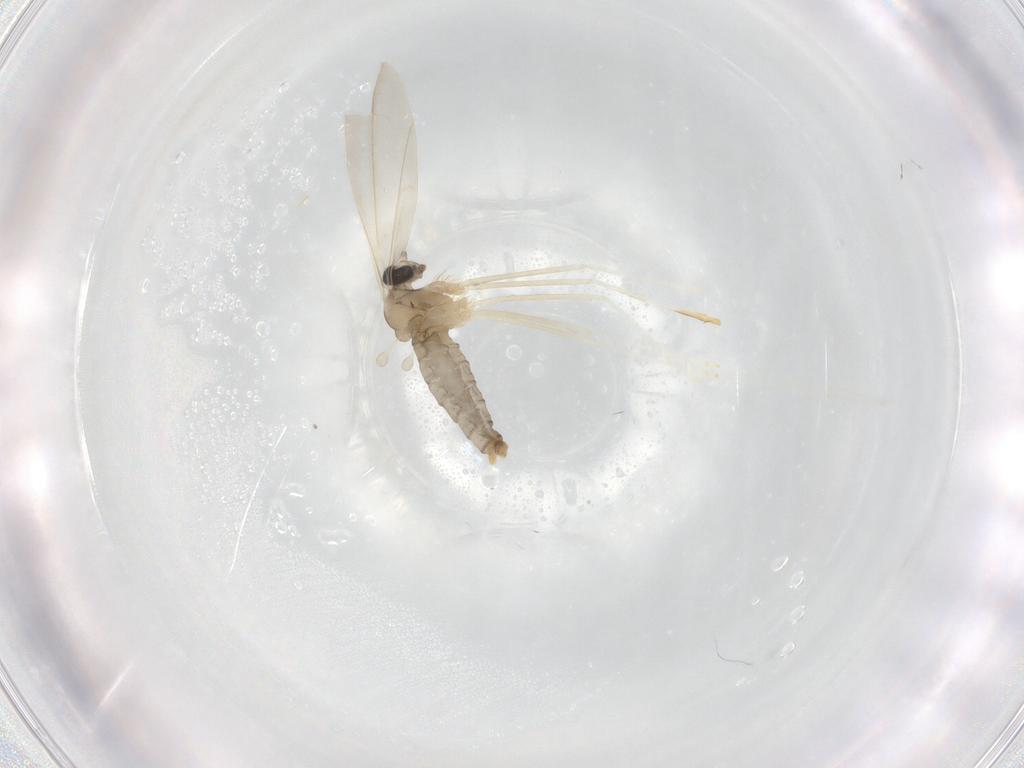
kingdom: Animalia
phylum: Arthropoda
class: Insecta
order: Diptera
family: Cecidomyiidae
